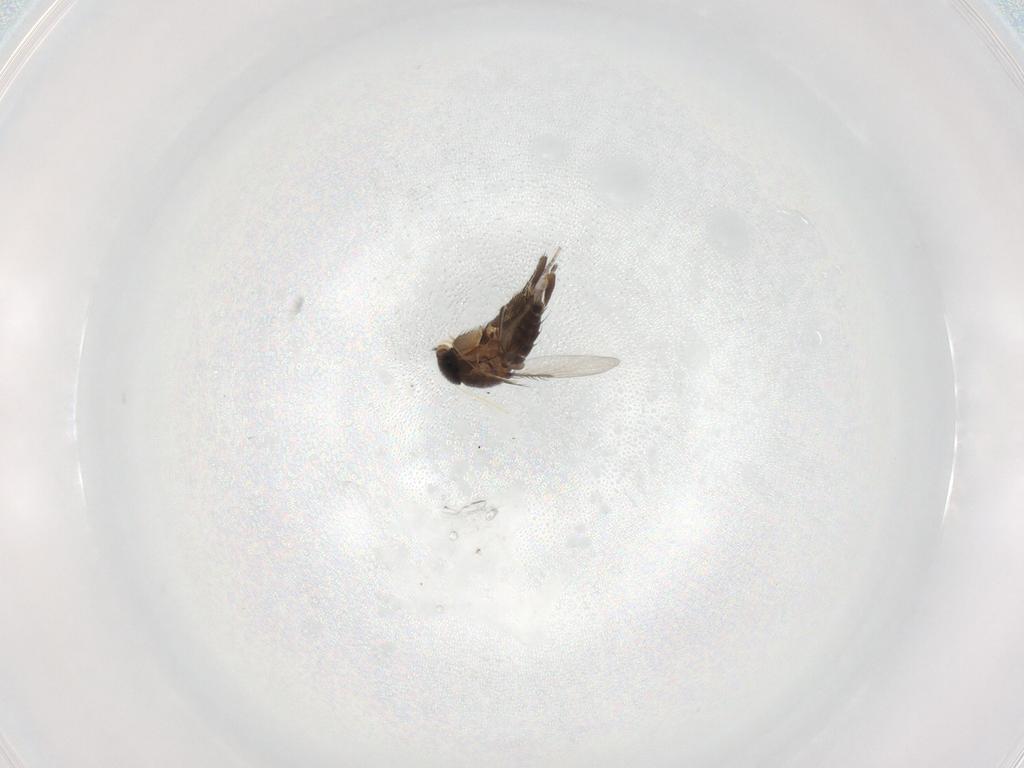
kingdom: Animalia
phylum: Arthropoda
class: Insecta
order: Diptera
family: Phoridae
